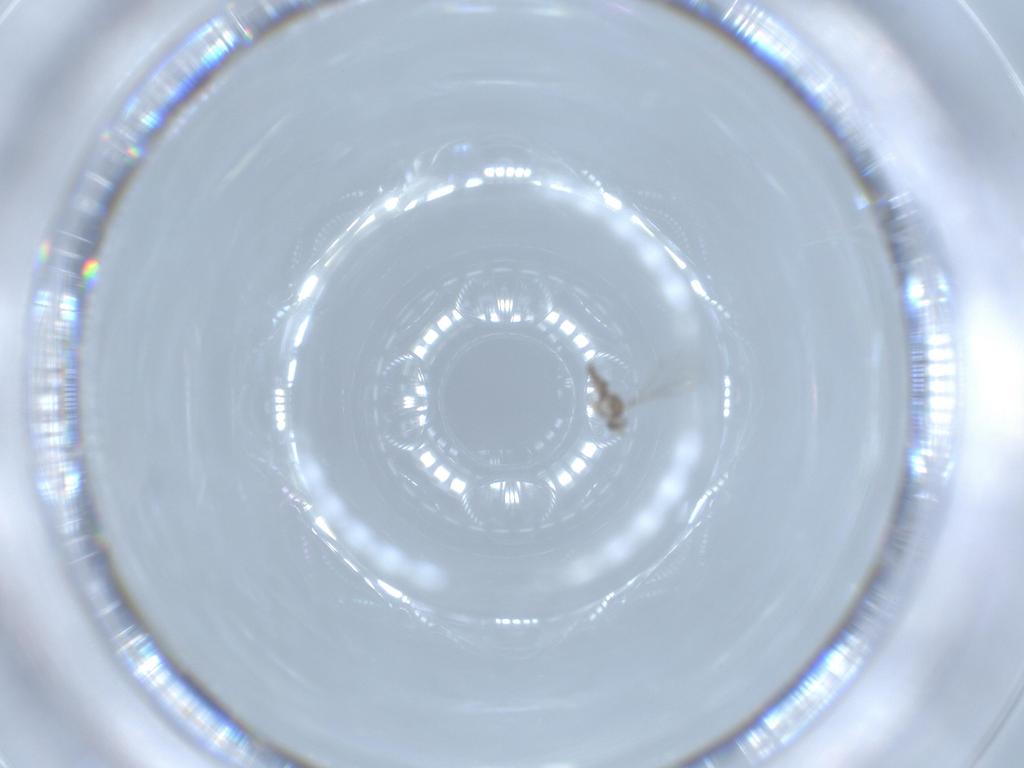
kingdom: Animalia
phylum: Arthropoda
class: Insecta
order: Diptera
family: Cecidomyiidae
